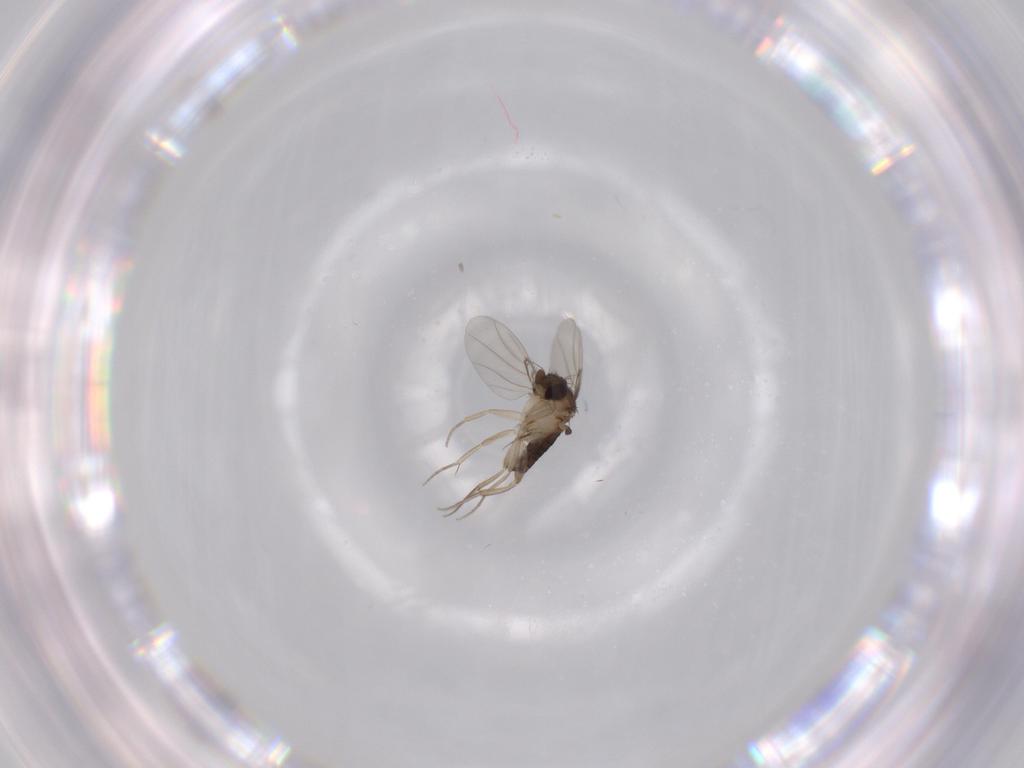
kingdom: Animalia
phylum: Arthropoda
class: Insecta
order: Diptera
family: Phoridae
